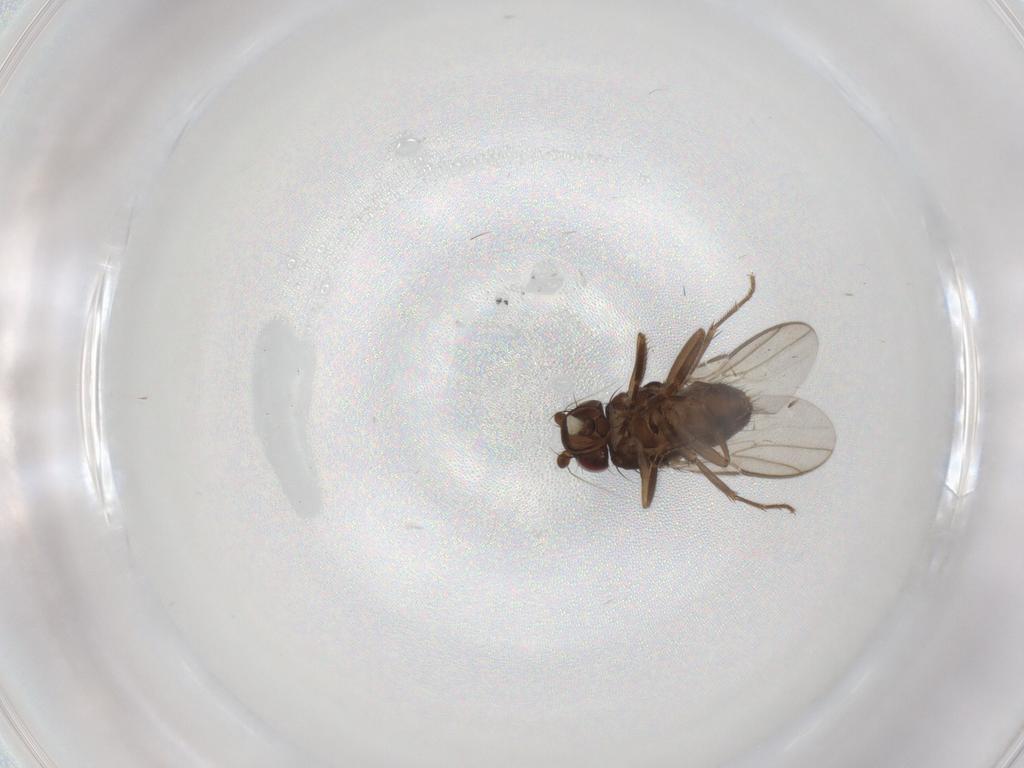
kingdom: Animalia
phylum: Arthropoda
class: Insecta
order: Diptera
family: Sphaeroceridae
